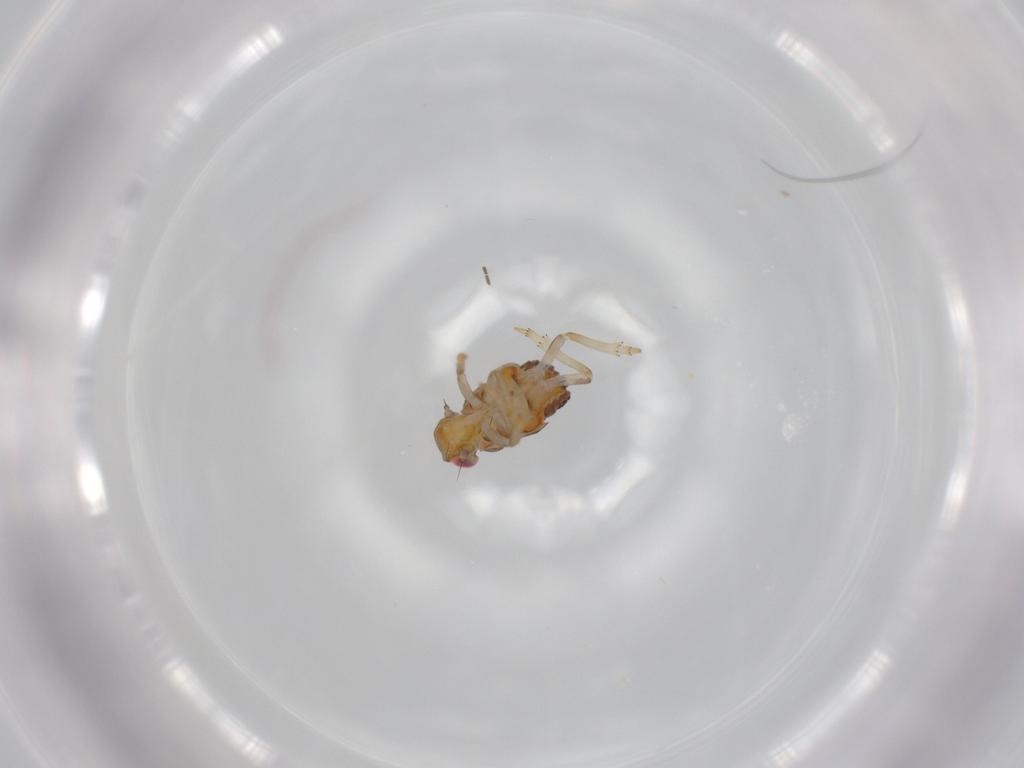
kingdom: Animalia
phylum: Arthropoda
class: Insecta
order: Hemiptera
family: Issidae
